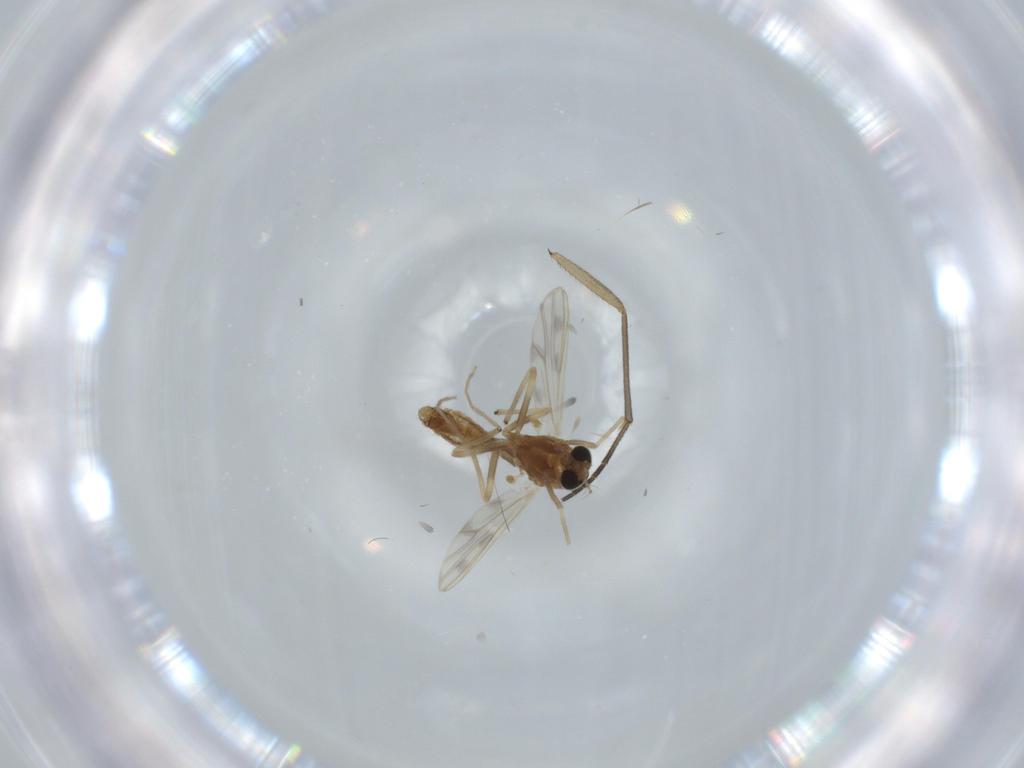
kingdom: Animalia
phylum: Arthropoda
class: Insecta
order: Diptera
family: Chironomidae
